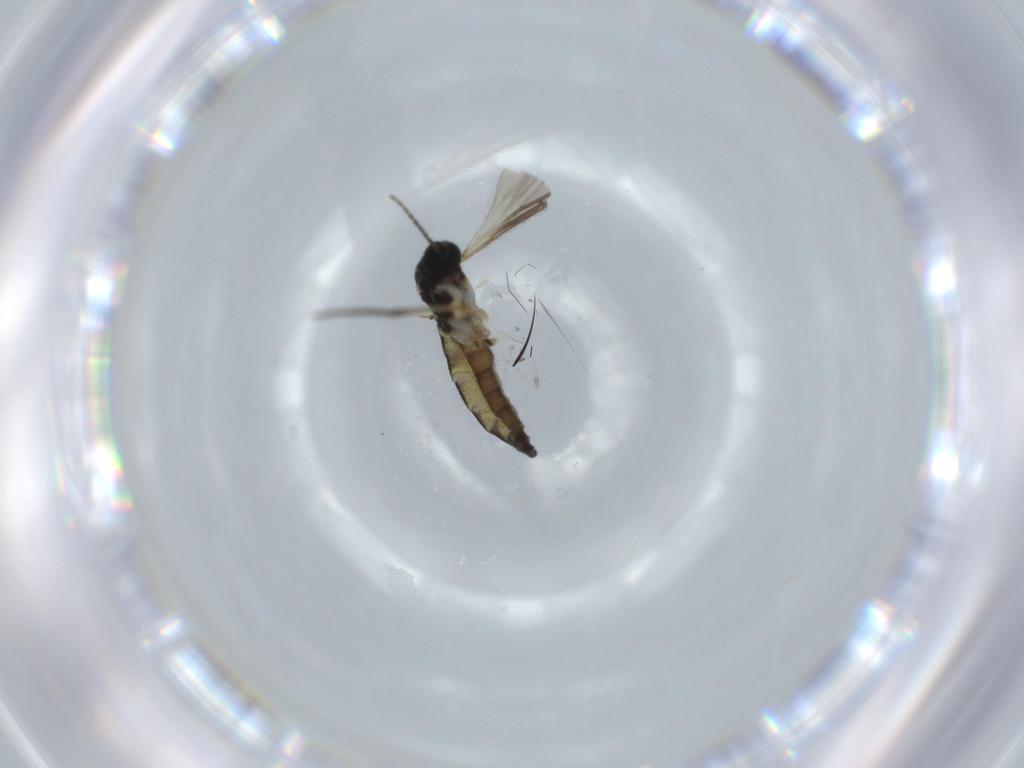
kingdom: Animalia
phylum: Arthropoda
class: Insecta
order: Diptera
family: Sciaridae
